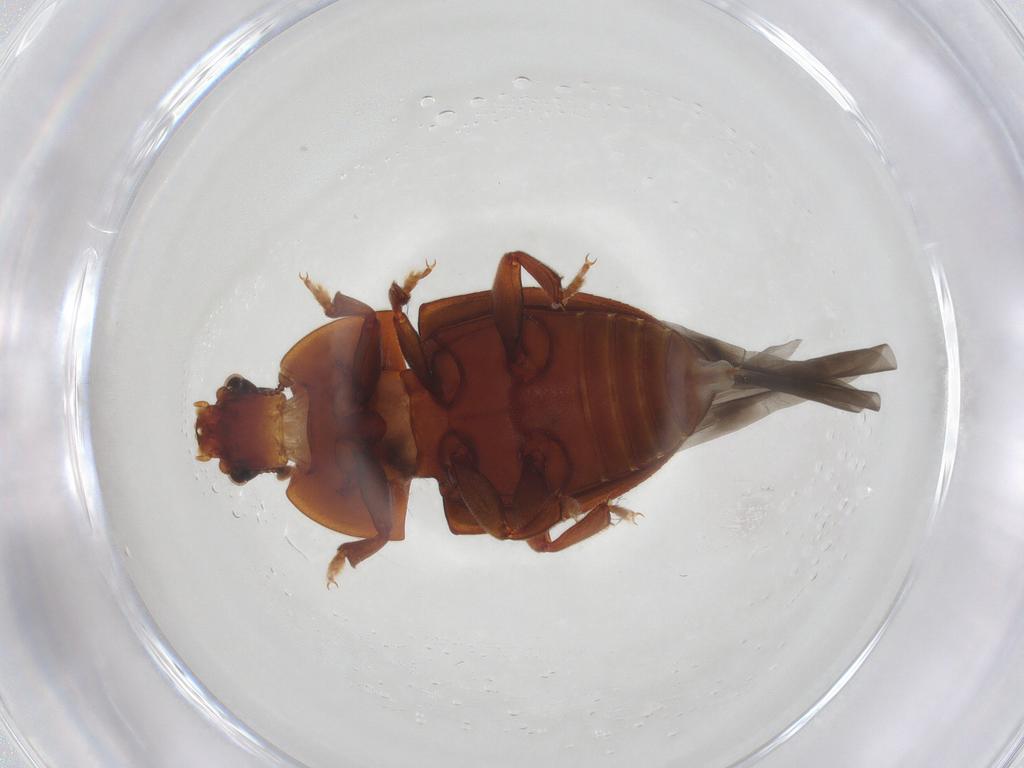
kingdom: Animalia
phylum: Arthropoda
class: Insecta
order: Coleoptera
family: Nitidulidae
